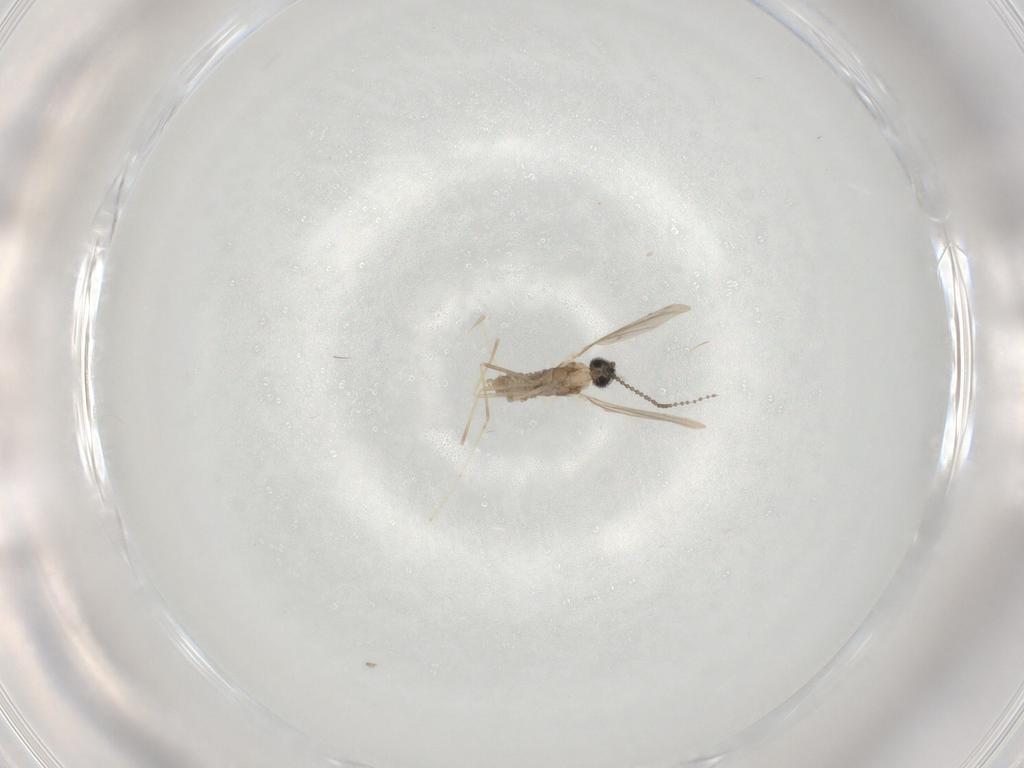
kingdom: Animalia
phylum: Arthropoda
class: Insecta
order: Diptera
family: Cecidomyiidae
